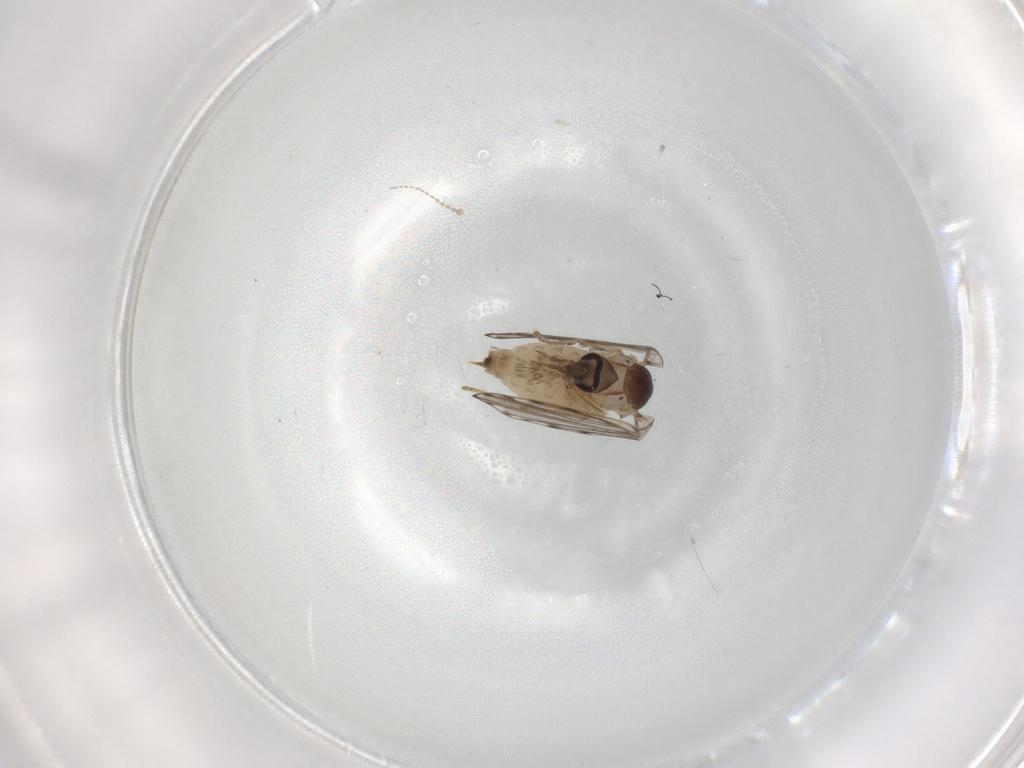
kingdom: Animalia
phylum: Arthropoda
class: Insecta
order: Diptera
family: Psychodidae
